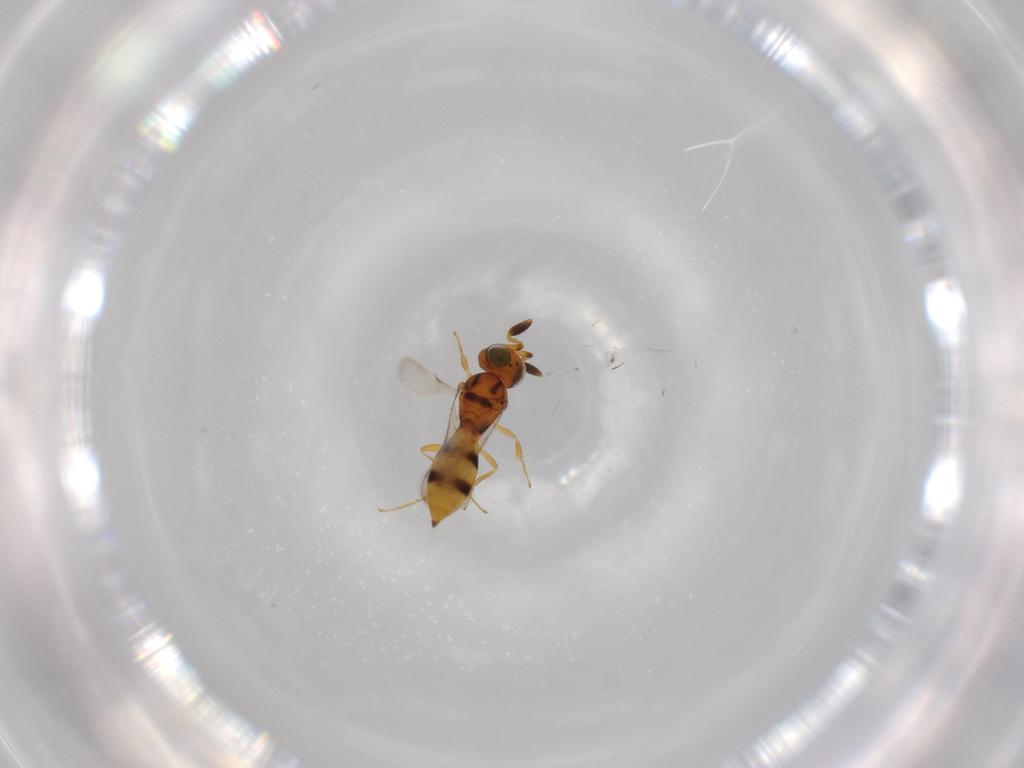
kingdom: Animalia
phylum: Arthropoda
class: Insecta
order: Hymenoptera
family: Scelionidae
